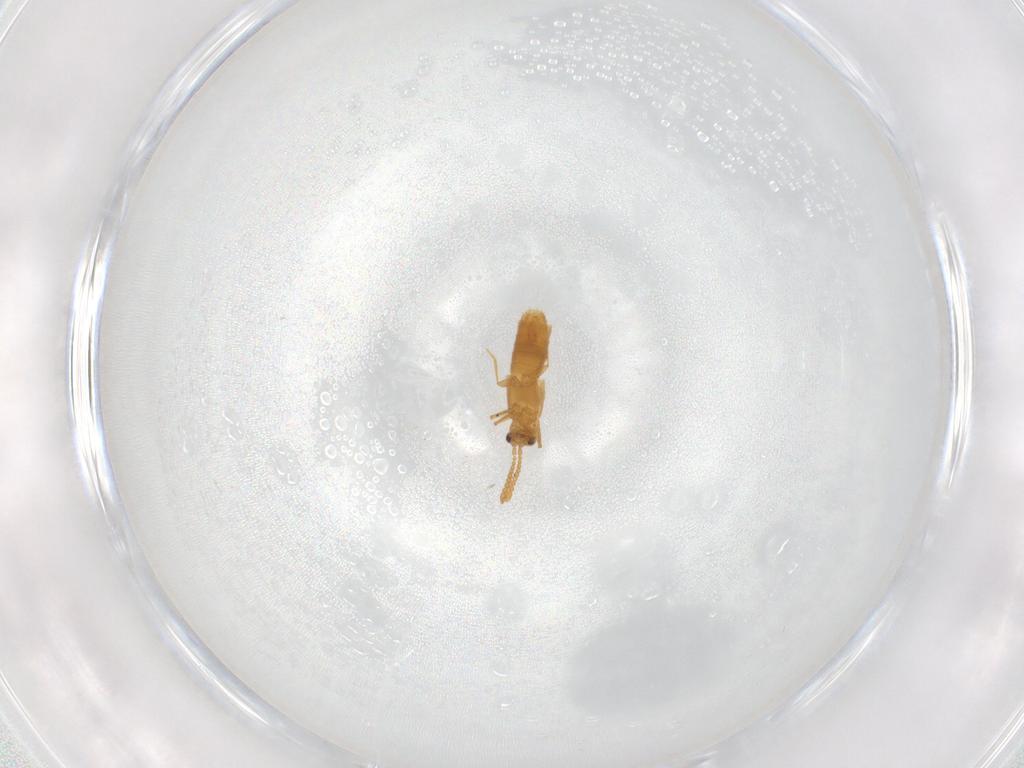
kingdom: Animalia
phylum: Arthropoda
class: Insecta
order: Coleoptera
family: Staphylinidae
